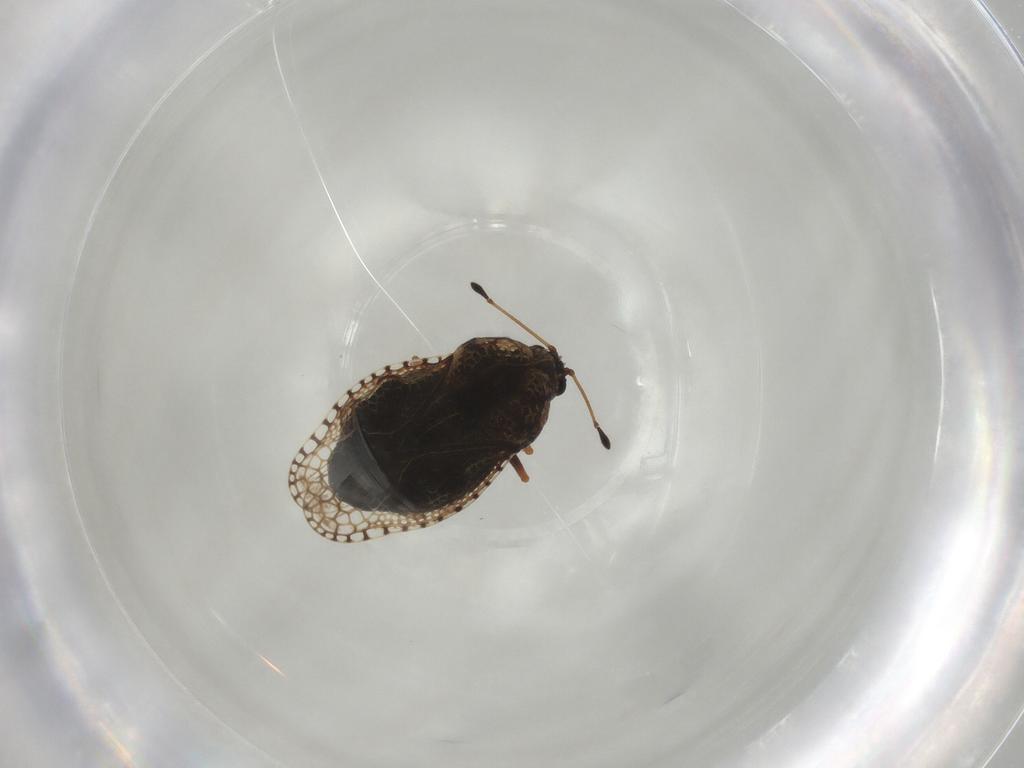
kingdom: Animalia
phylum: Arthropoda
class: Insecta
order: Hemiptera
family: Tingidae
